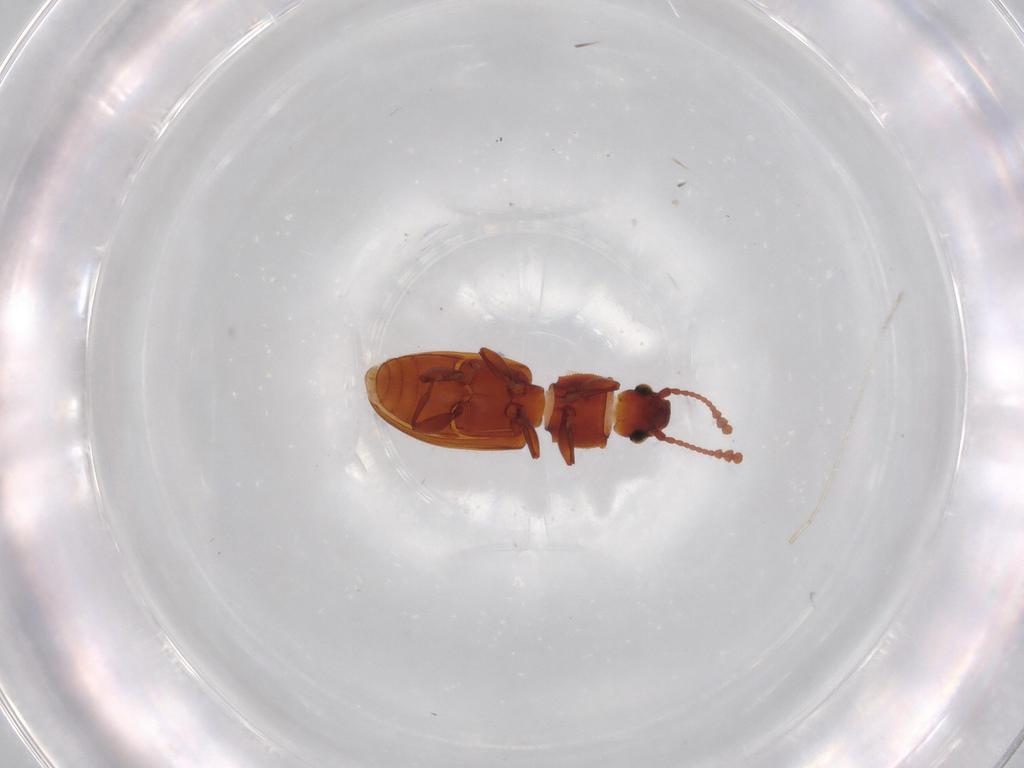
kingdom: Animalia
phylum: Arthropoda
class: Insecta
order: Coleoptera
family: Silvanidae
